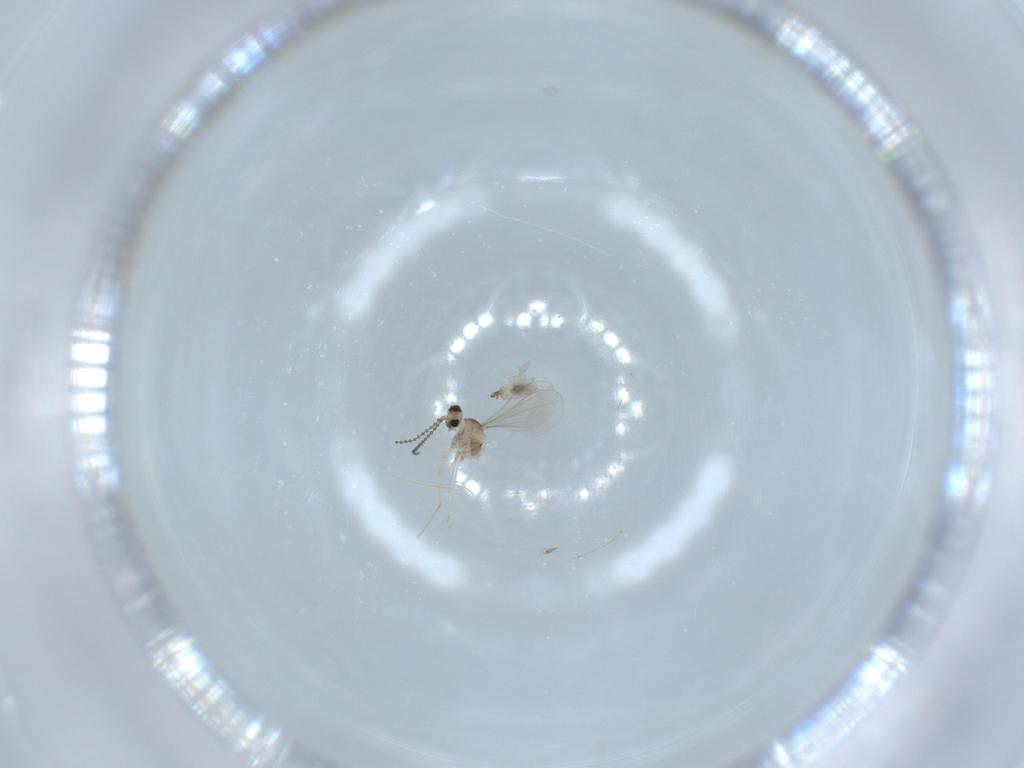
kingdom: Animalia
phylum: Arthropoda
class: Insecta
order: Diptera
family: Cecidomyiidae
